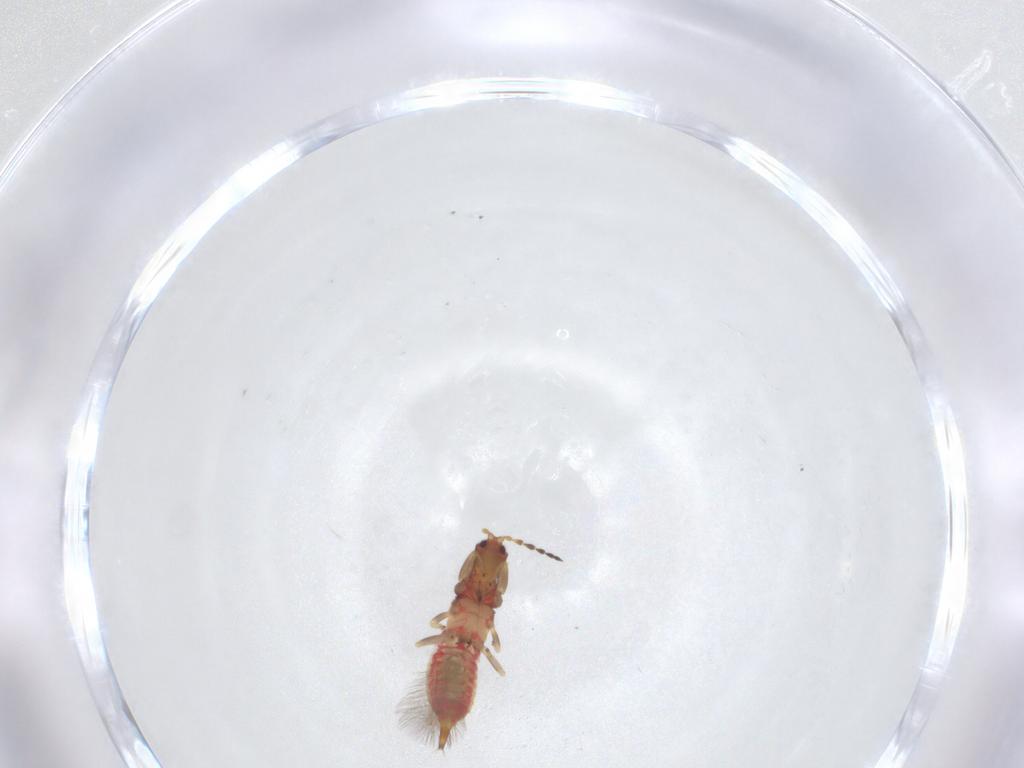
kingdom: Animalia
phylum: Arthropoda
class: Insecta
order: Thysanoptera
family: Phlaeothripidae
